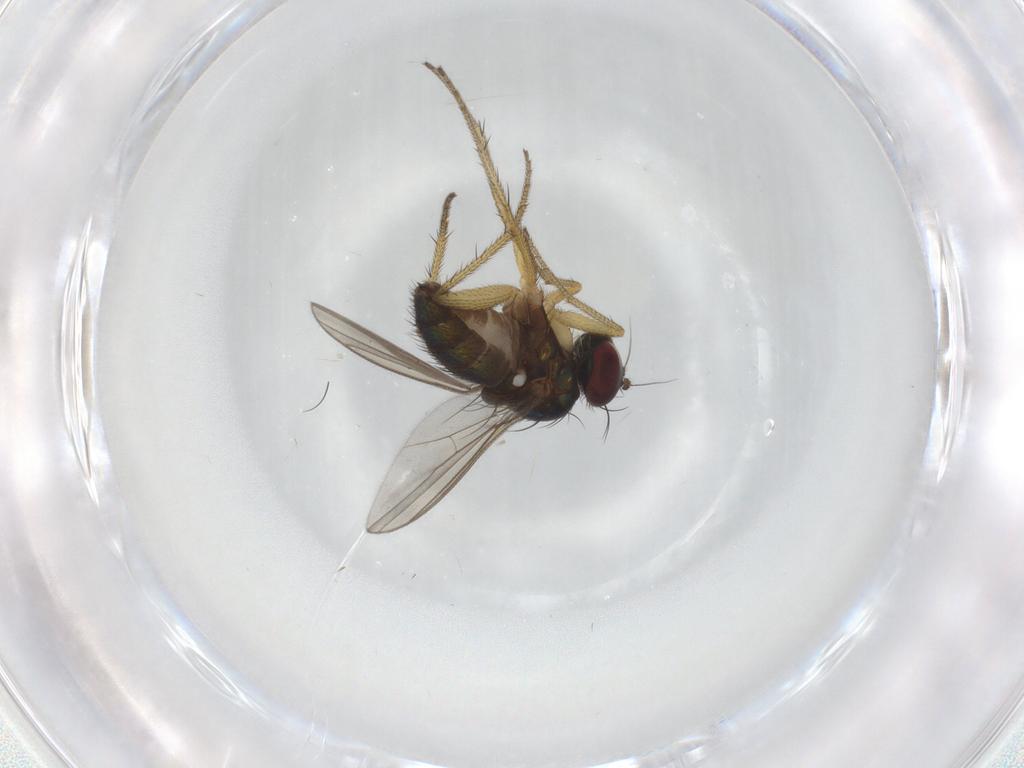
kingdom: Animalia
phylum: Arthropoda
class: Insecta
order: Diptera
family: Dolichopodidae
